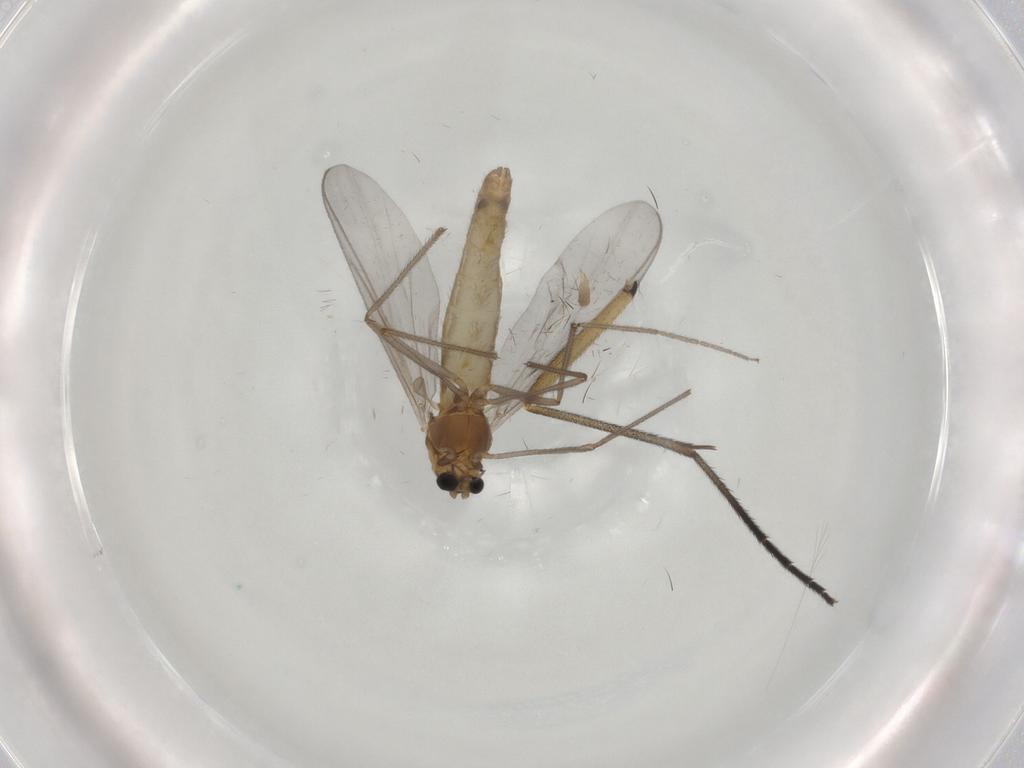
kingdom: Animalia
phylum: Arthropoda
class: Insecta
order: Diptera
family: Chironomidae
